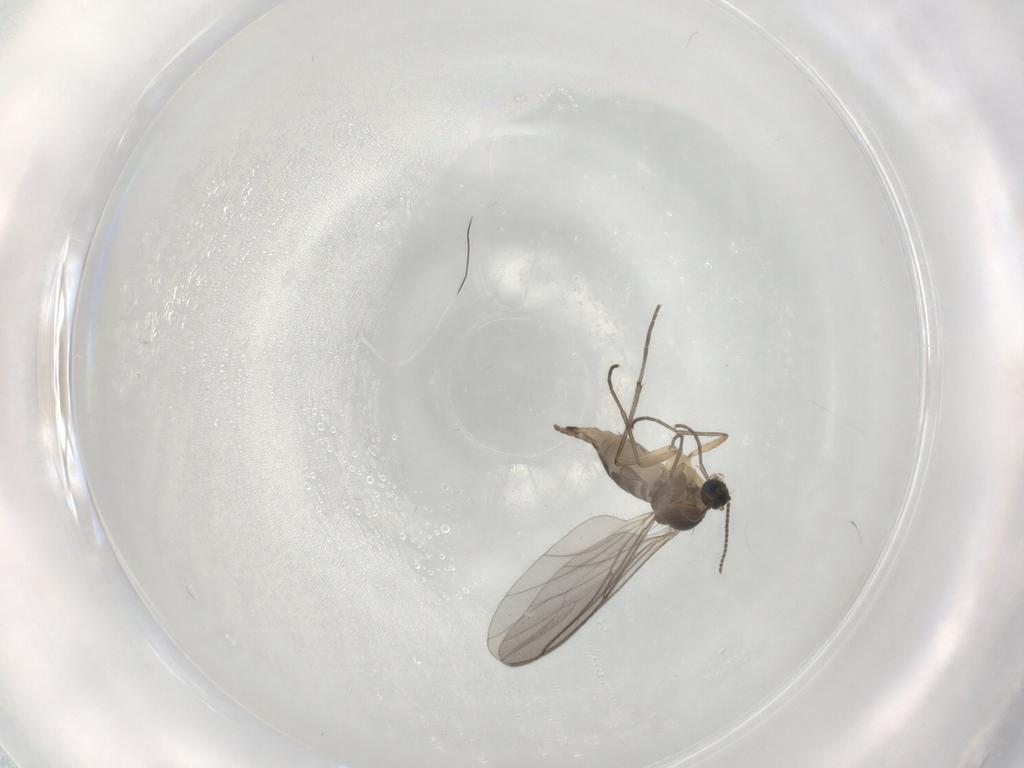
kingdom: Animalia
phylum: Arthropoda
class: Insecta
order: Diptera
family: Sciaridae
